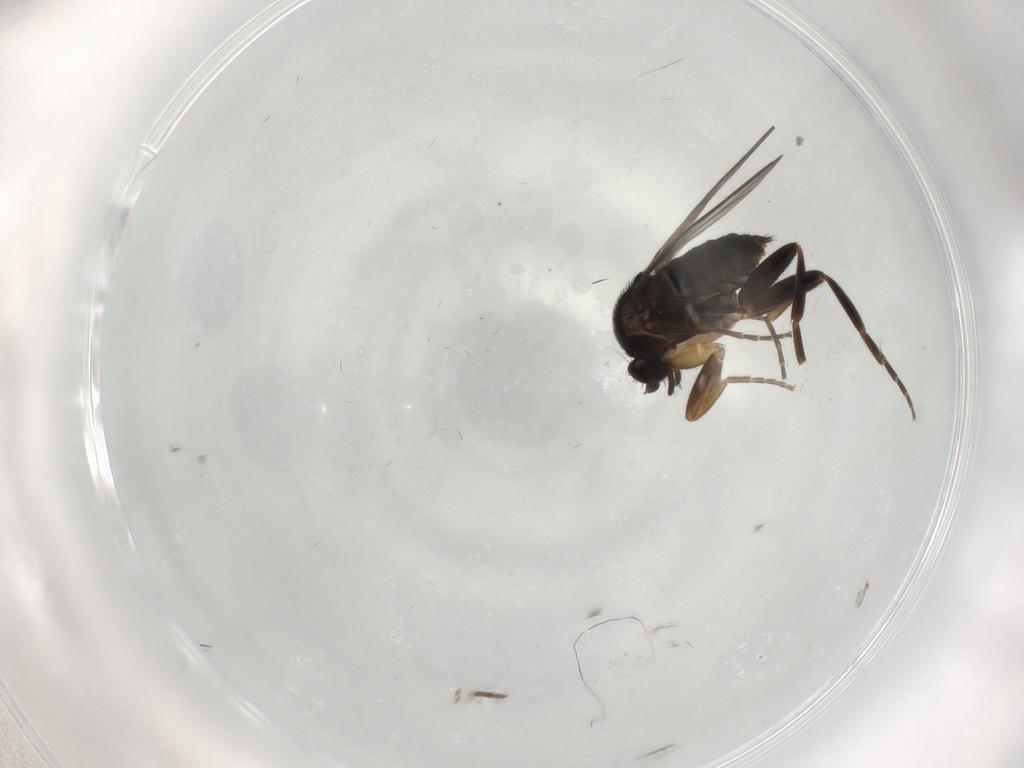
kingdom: Animalia
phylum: Arthropoda
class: Insecta
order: Diptera
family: Phoridae
